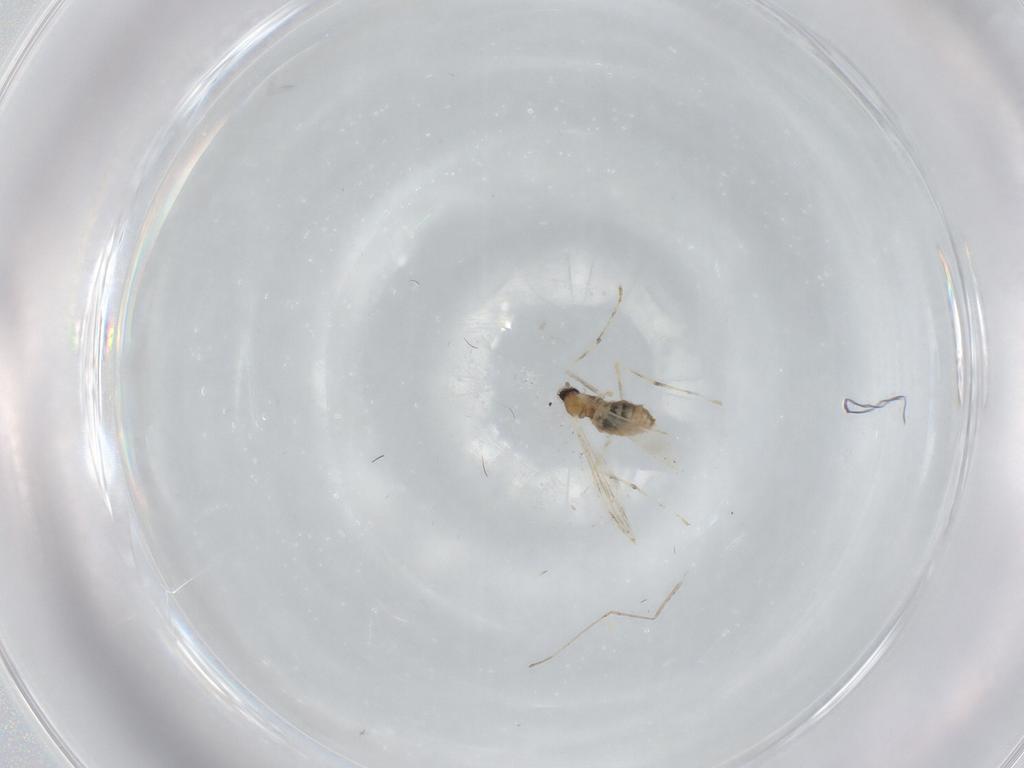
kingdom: Animalia
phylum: Arthropoda
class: Insecta
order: Diptera
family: Cecidomyiidae
